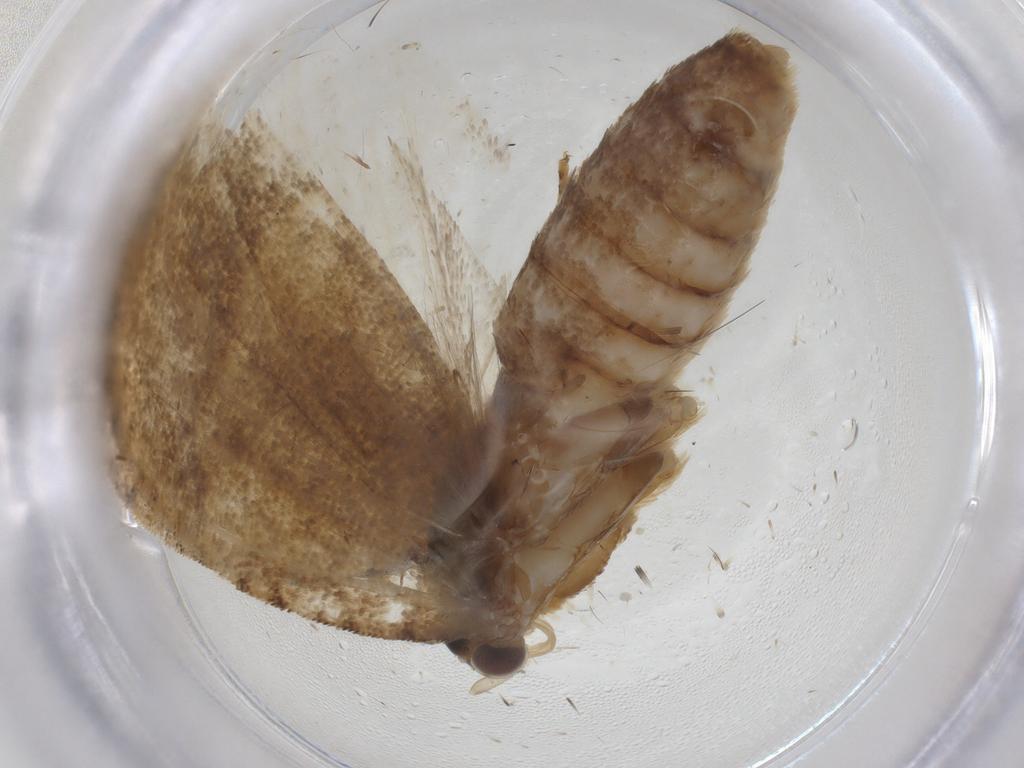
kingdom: Animalia
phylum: Arthropoda
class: Insecta
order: Lepidoptera
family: Tortricidae
